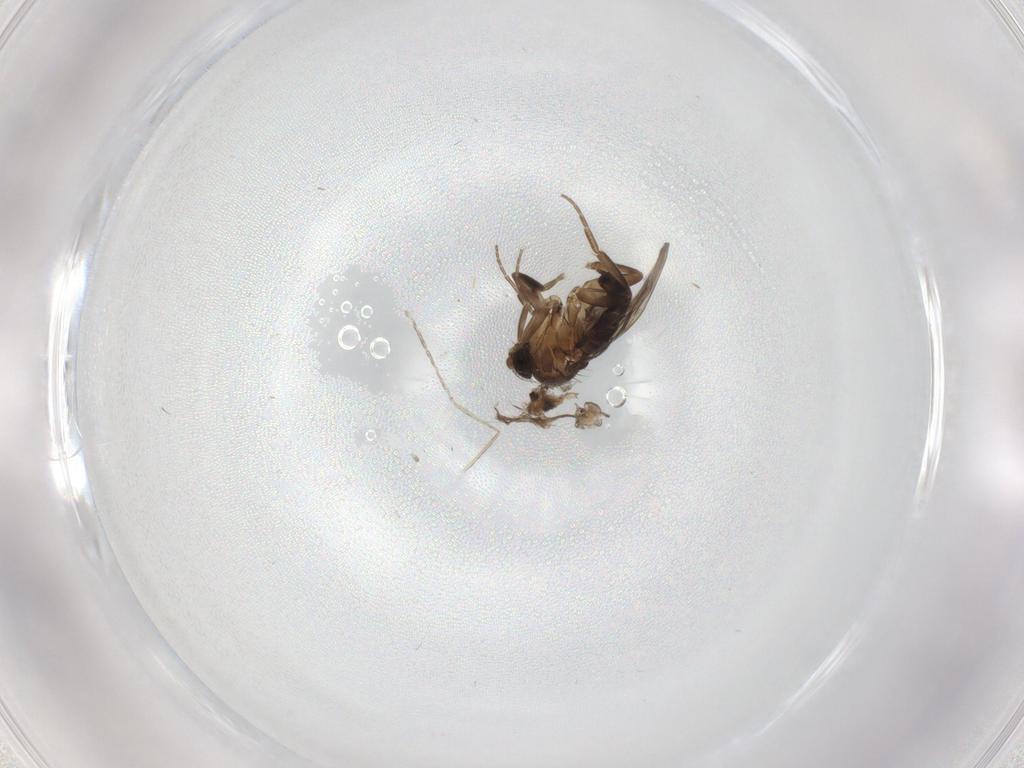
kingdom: Animalia
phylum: Arthropoda
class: Insecta
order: Diptera
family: Phoridae
